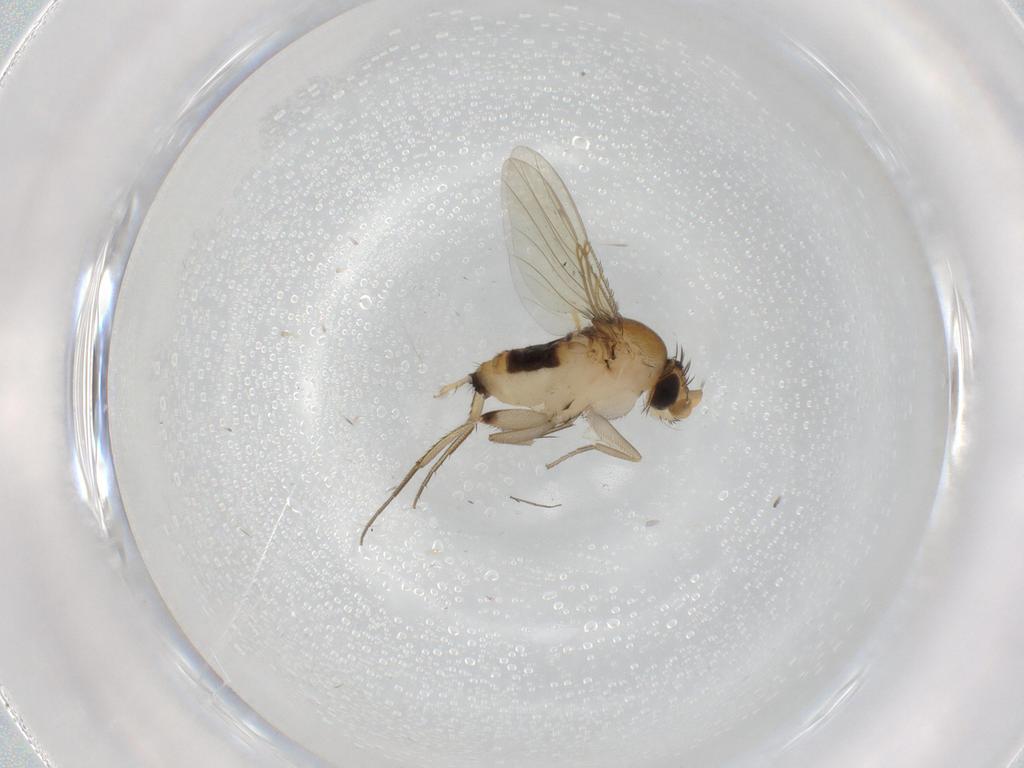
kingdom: Animalia
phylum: Arthropoda
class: Insecta
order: Diptera
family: Phoridae
